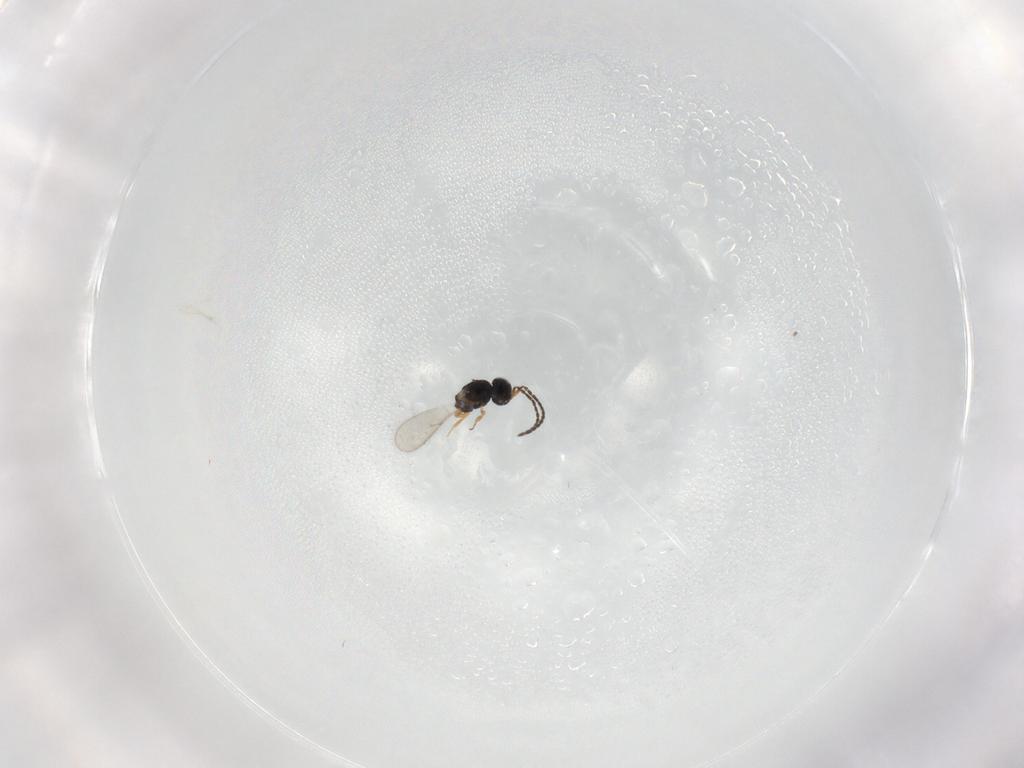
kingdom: Animalia
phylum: Arthropoda
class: Insecta
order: Hymenoptera
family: Scelionidae
